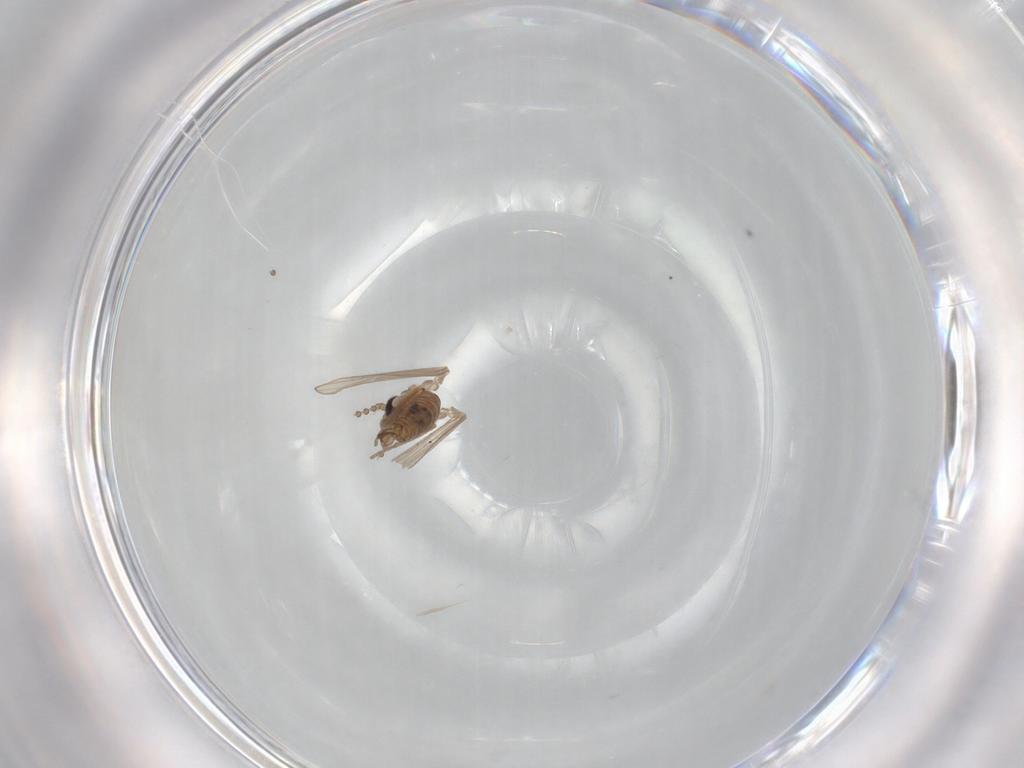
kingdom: Animalia
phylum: Arthropoda
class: Insecta
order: Diptera
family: Psychodidae
